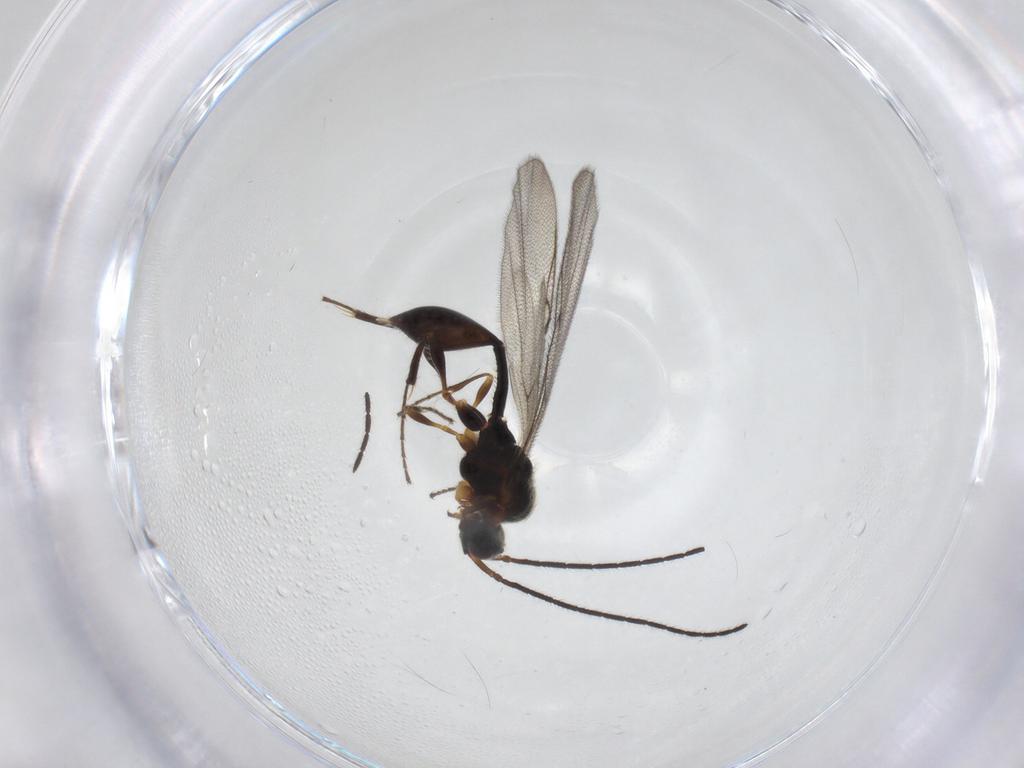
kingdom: Animalia
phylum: Arthropoda
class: Insecta
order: Hymenoptera
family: Diapriidae
